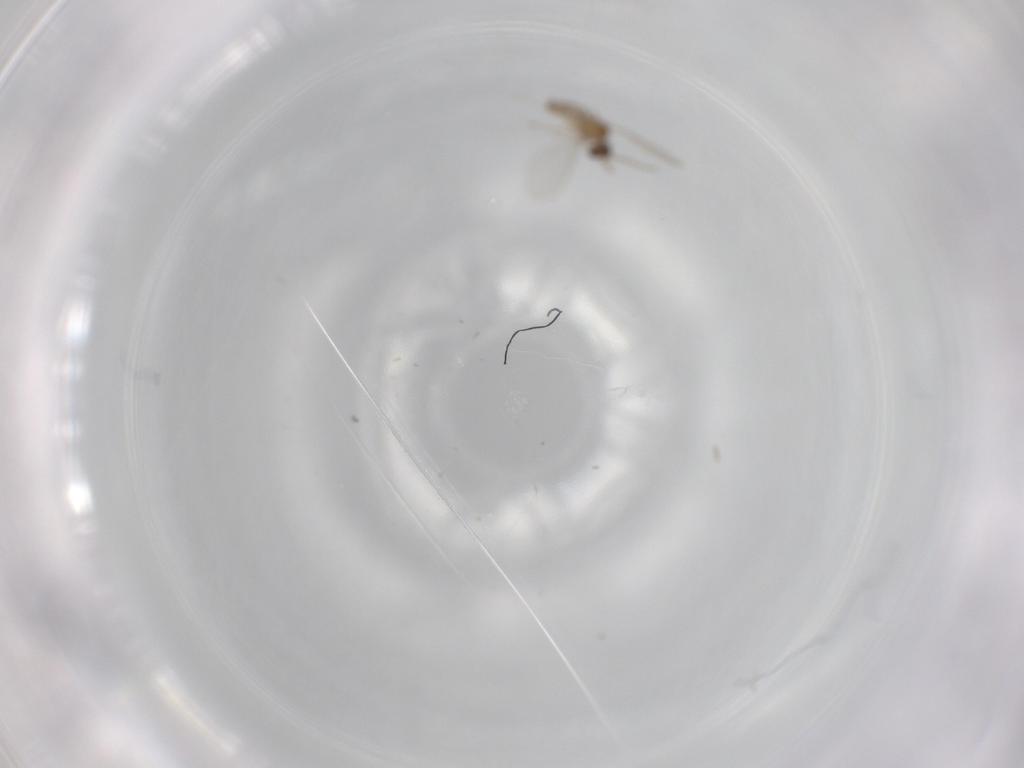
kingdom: Animalia
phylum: Arthropoda
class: Insecta
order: Diptera
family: Cecidomyiidae
